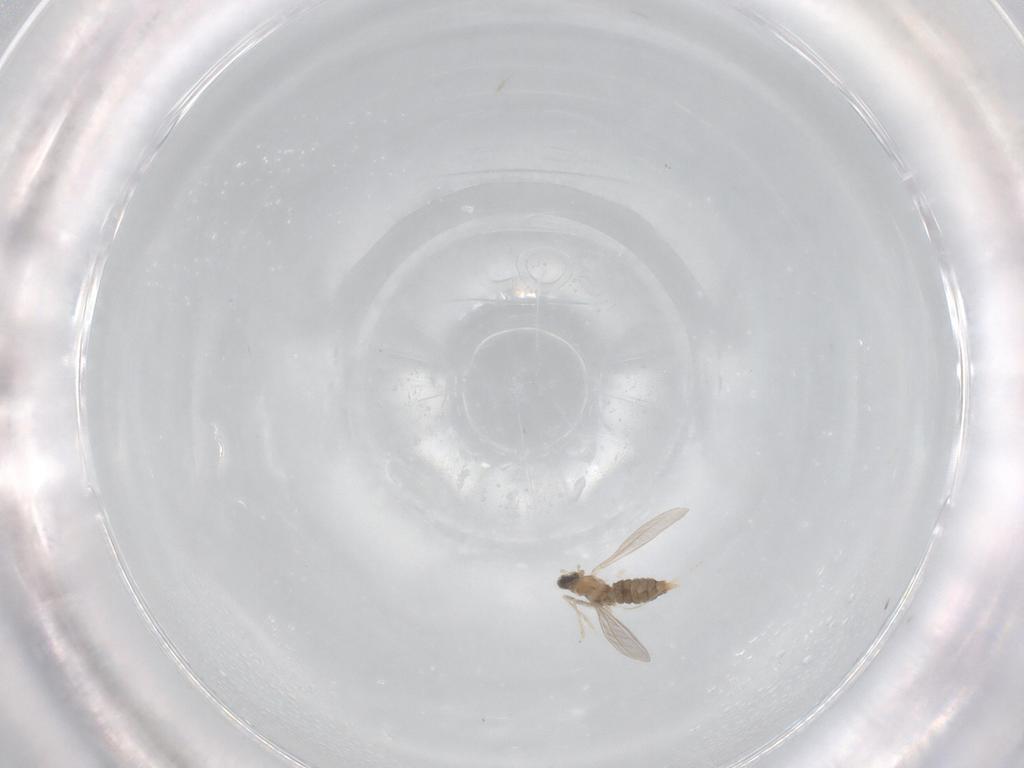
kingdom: Animalia
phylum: Arthropoda
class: Insecta
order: Diptera
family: Cecidomyiidae
